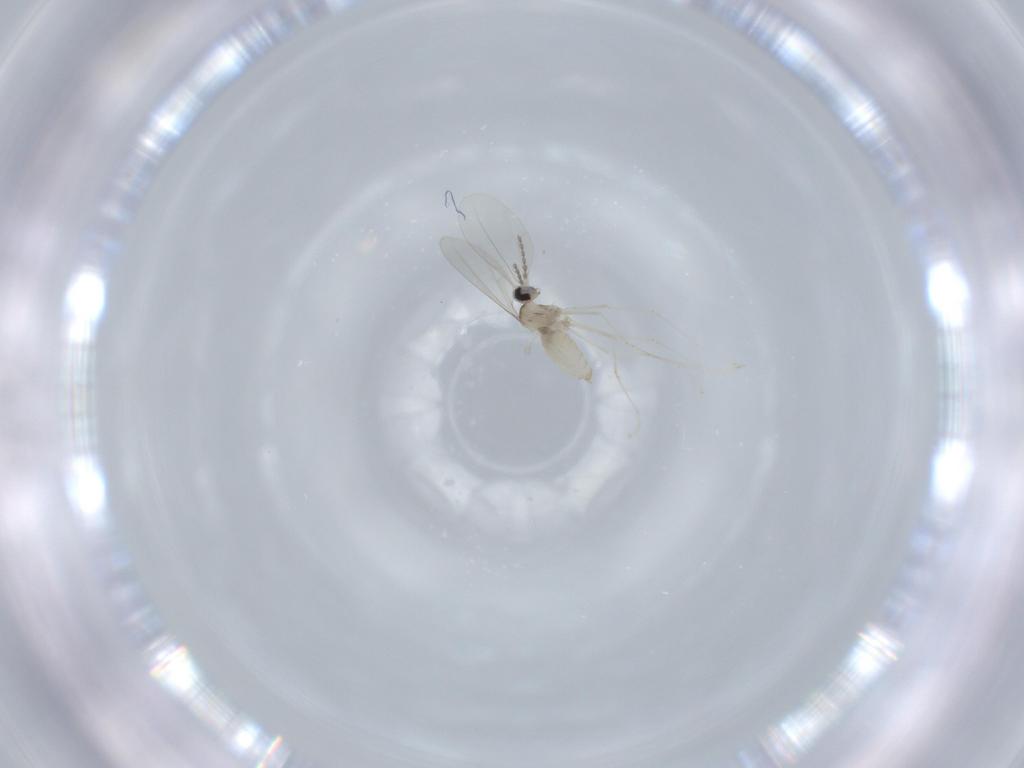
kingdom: Animalia
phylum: Arthropoda
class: Insecta
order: Diptera
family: Cecidomyiidae
